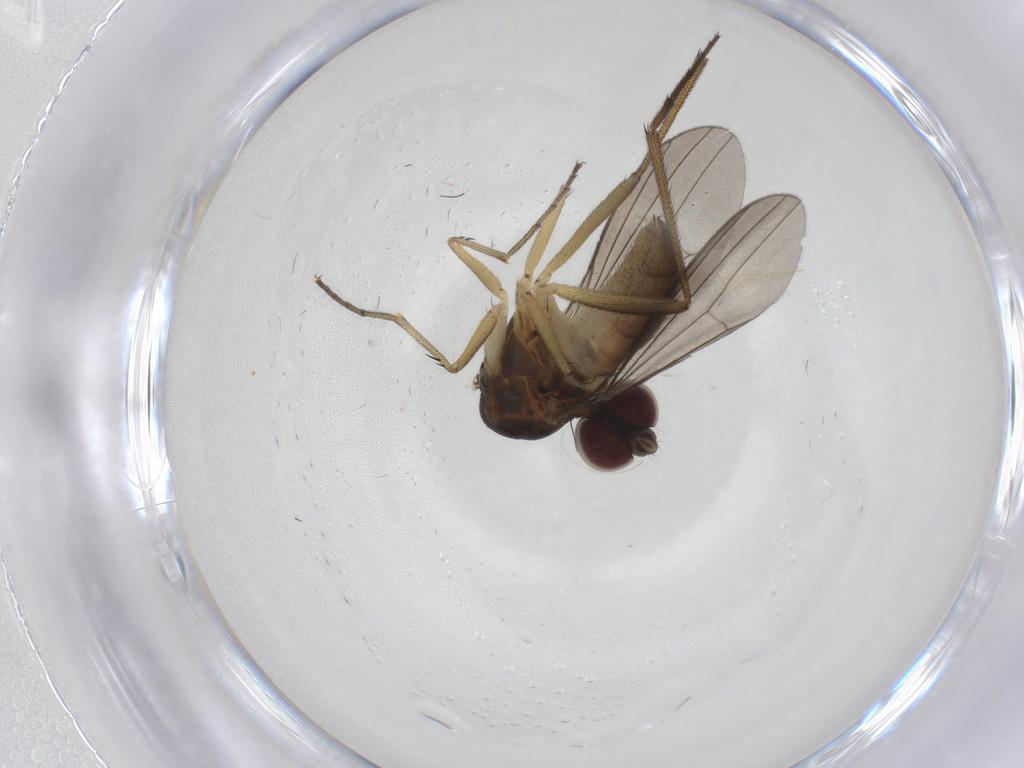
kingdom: Animalia
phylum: Arthropoda
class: Insecta
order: Diptera
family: Dolichopodidae
